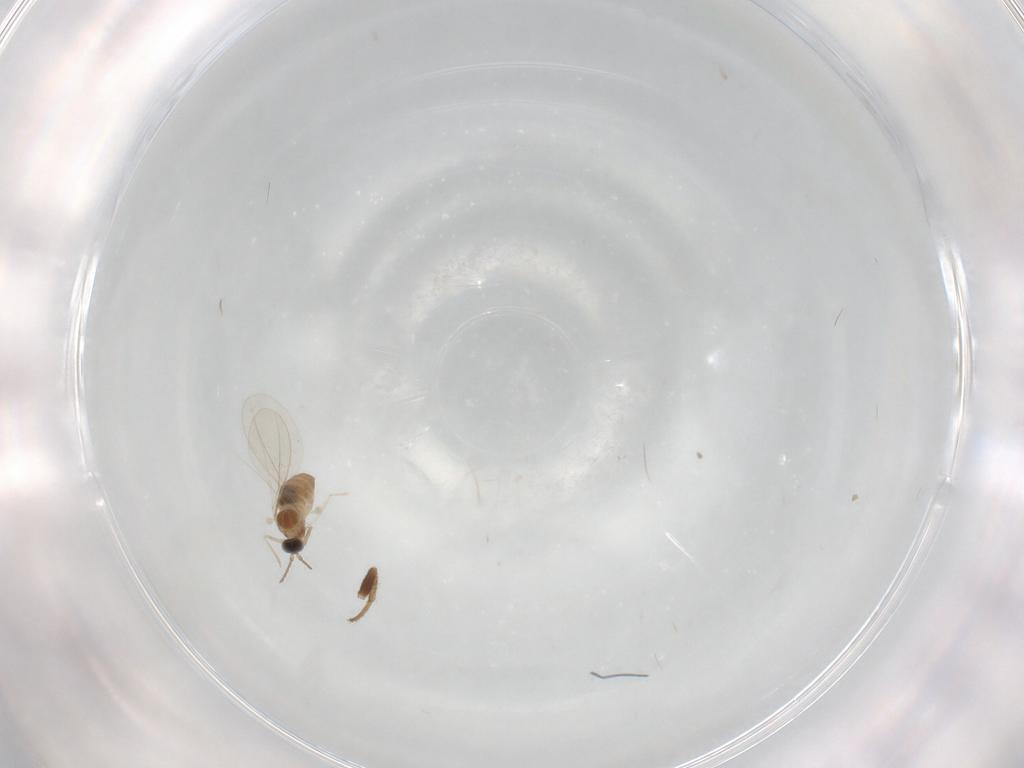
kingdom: Animalia
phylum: Arthropoda
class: Insecta
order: Diptera
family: Cecidomyiidae
